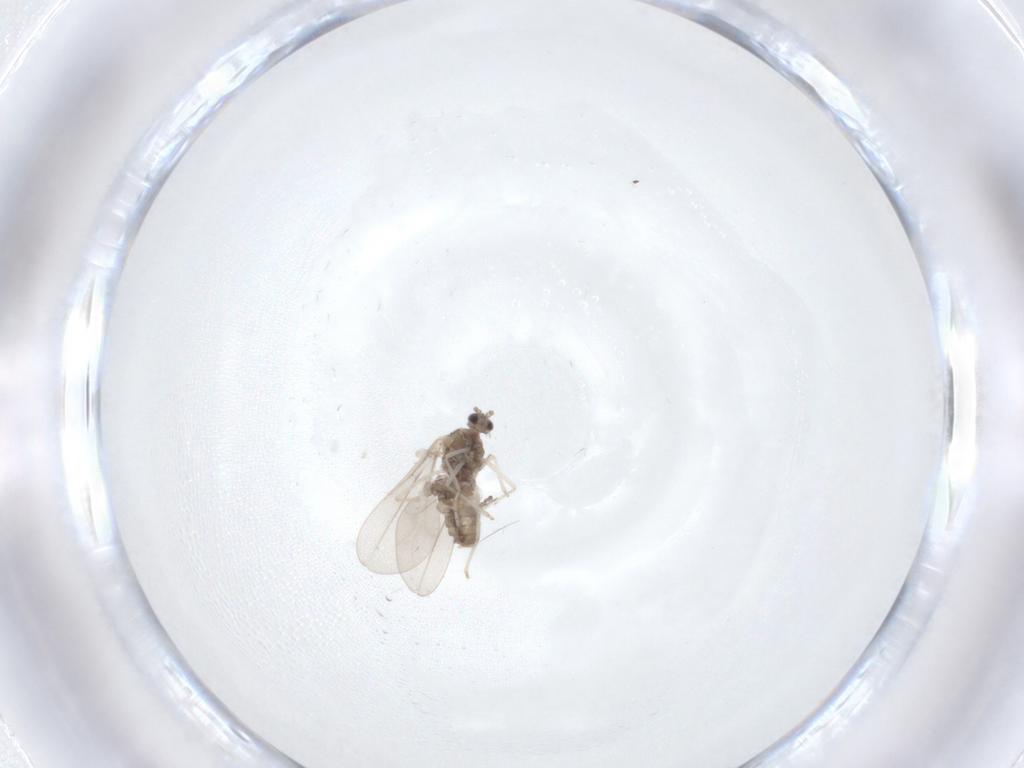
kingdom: Animalia
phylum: Arthropoda
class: Insecta
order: Diptera
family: Cecidomyiidae
